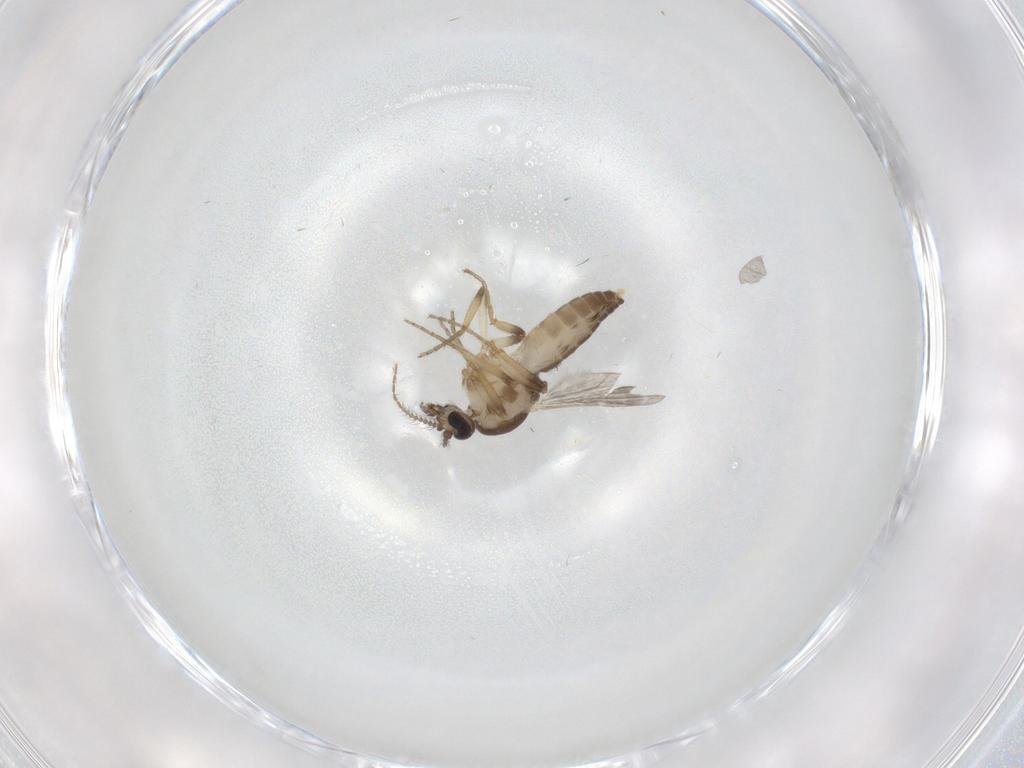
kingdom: Animalia
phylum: Arthropoda
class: Insecta
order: Diptera
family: Ceratopogonidae
